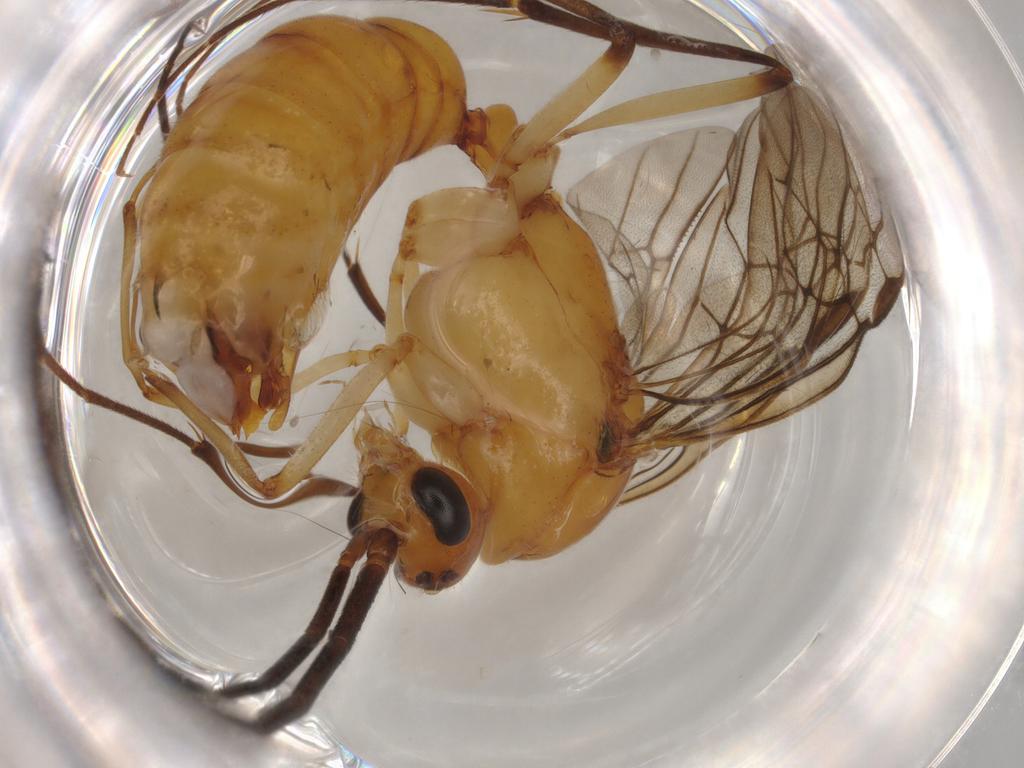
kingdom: Animalia
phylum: Arthropoda
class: Insecta
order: Hymenoptera
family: Formicidae
